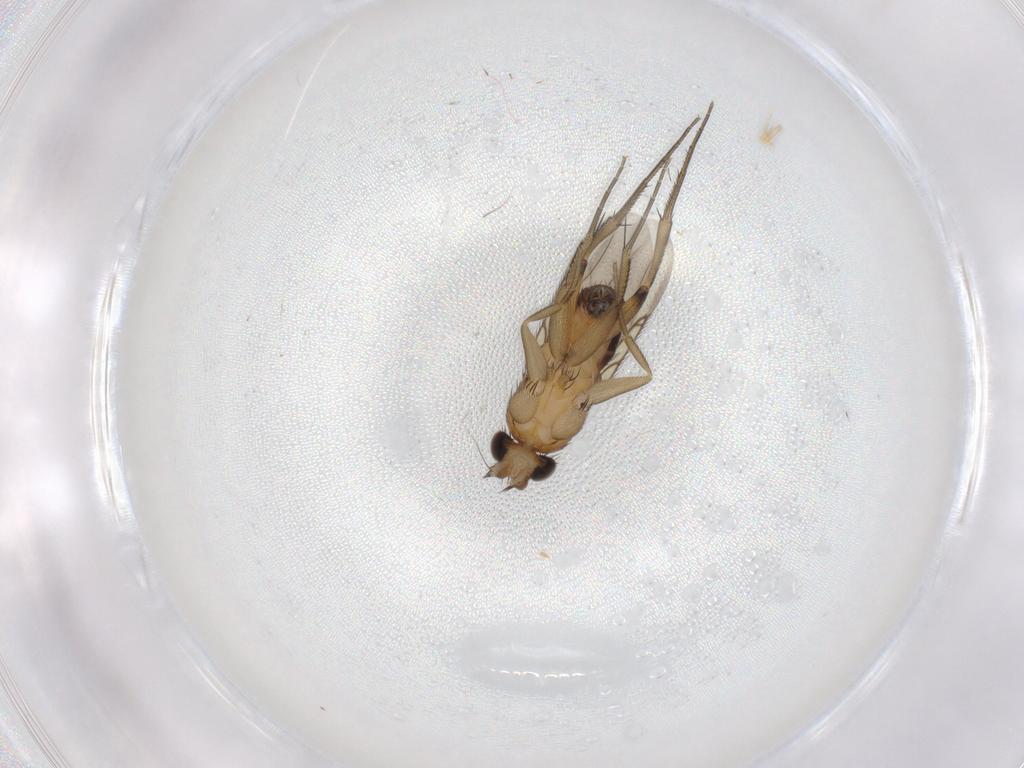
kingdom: Animalia
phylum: Arthropoda
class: Insecta
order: Diptera
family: Phoridae
